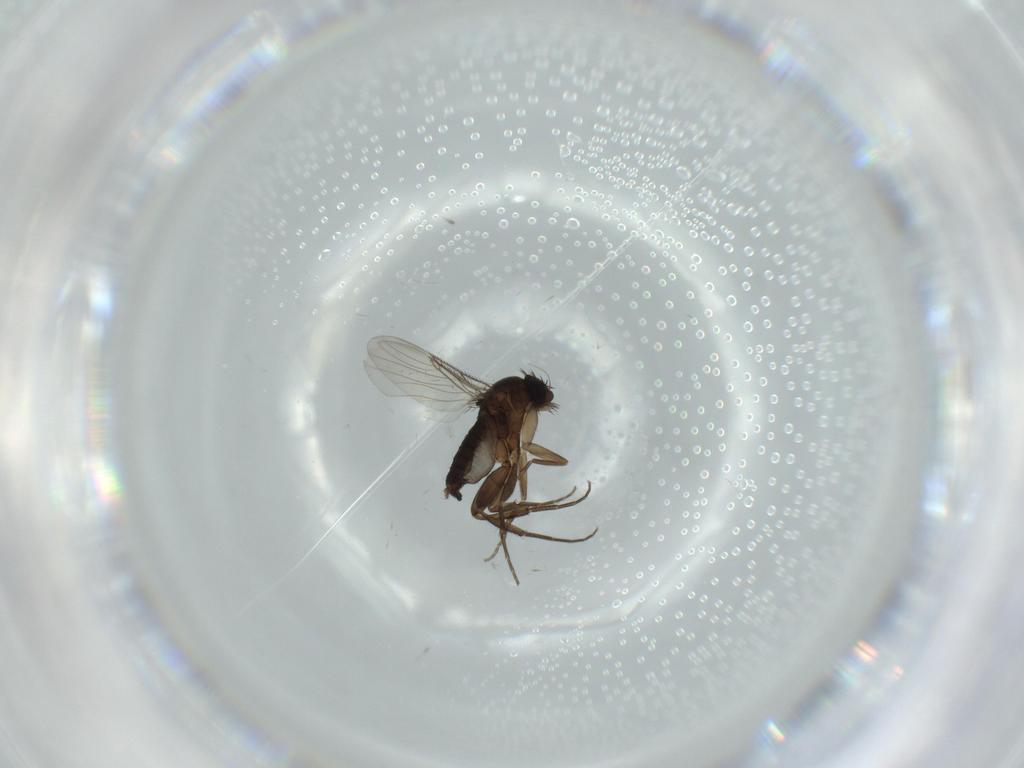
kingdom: Animalia
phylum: Arthropoda
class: Insecta
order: Diptera
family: Phoridae
